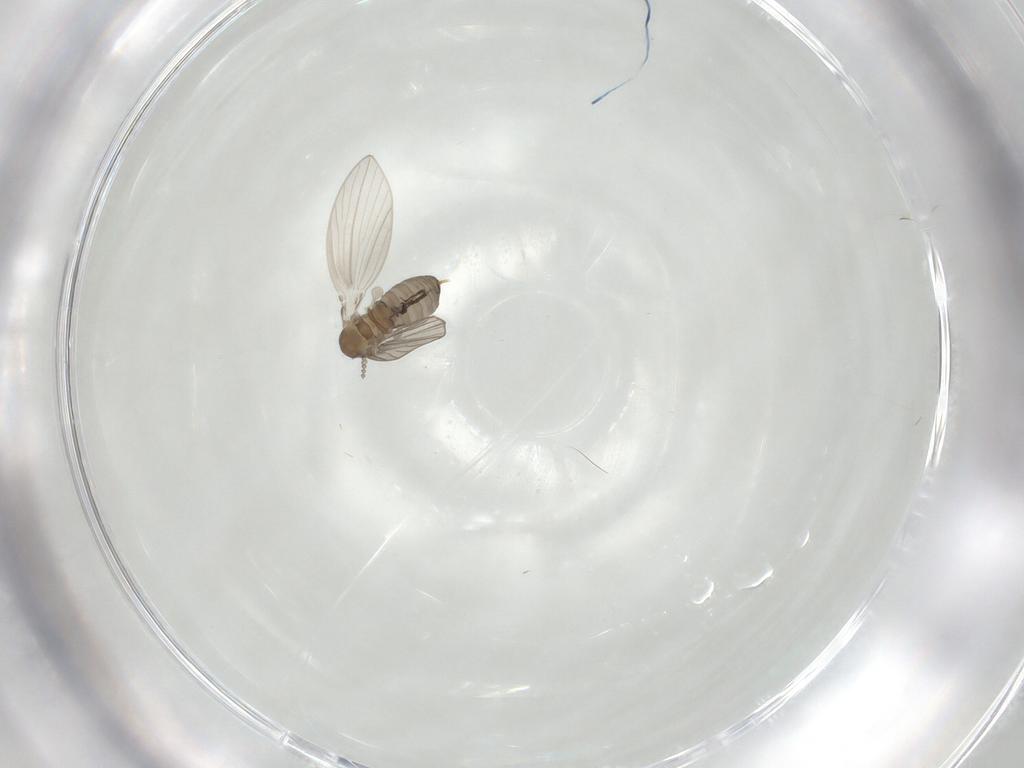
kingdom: Animalia
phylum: Arthropoda
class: Insecta
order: Diptera
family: Psychodidae
